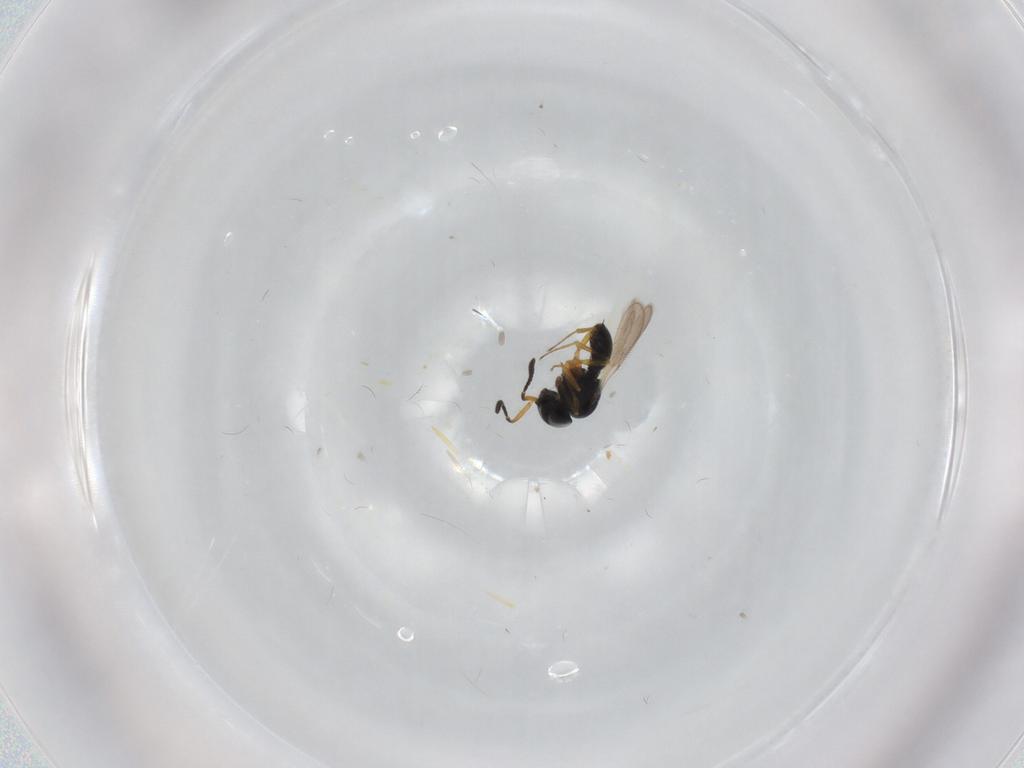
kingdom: Animalia
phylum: Arthropoda
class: Insecta
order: Hymenoptera
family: Scelionidae
